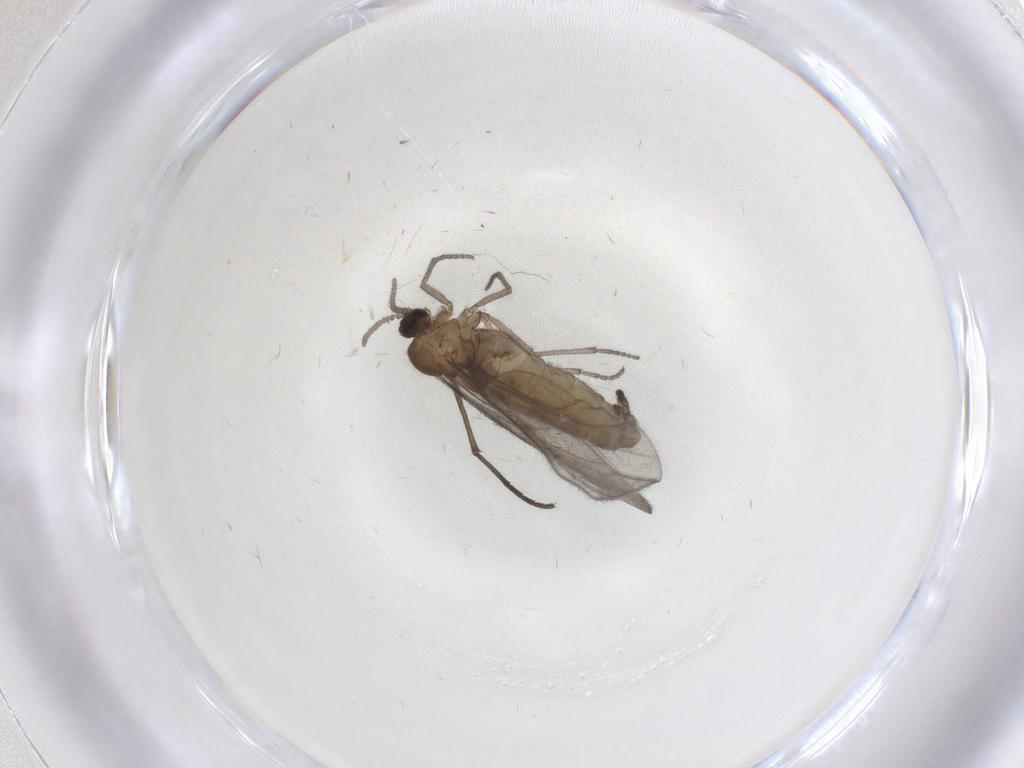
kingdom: Animalia
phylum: Arthropoda
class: Insecta
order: Diptera
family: Sciaridae
